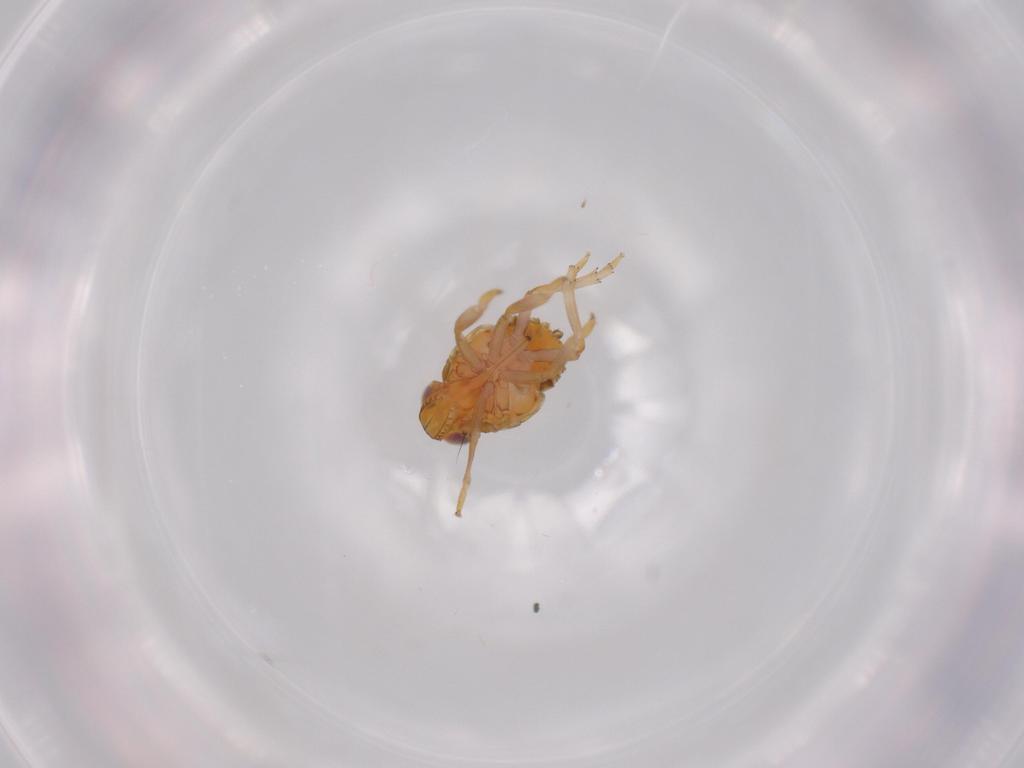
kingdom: Animalia
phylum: Arthropoda
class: Insecta
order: Hemiptera
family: Issidae
